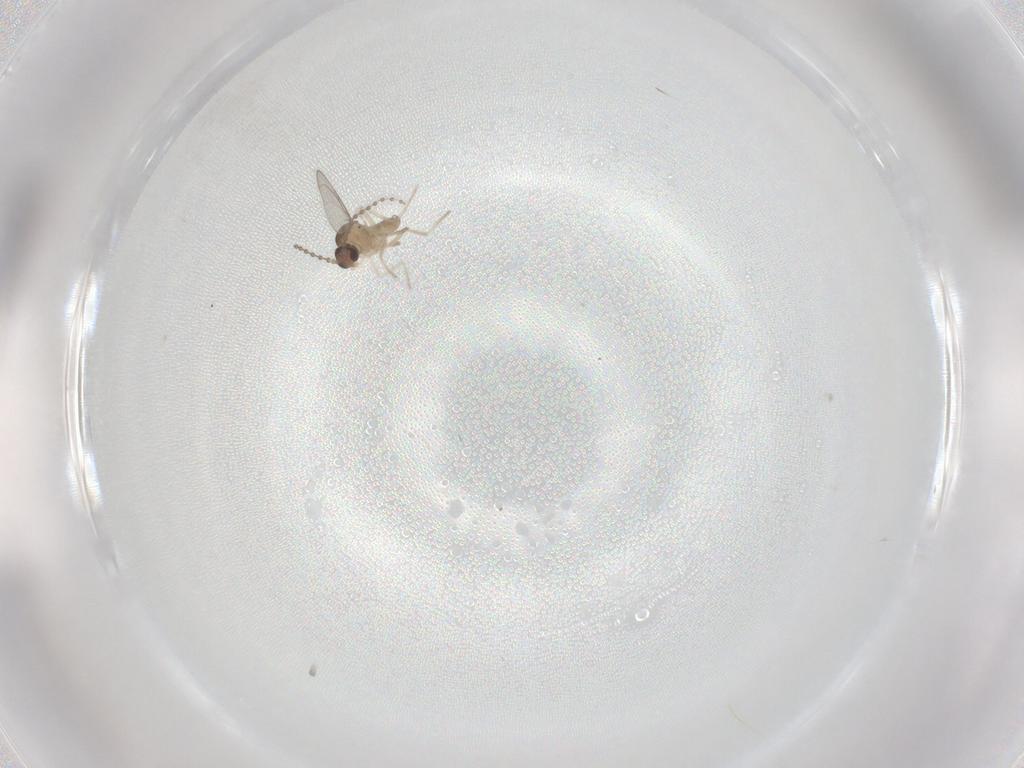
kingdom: Animalia
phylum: Arthropoda
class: Insecta
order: Diptera
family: Cecidomyiidae
